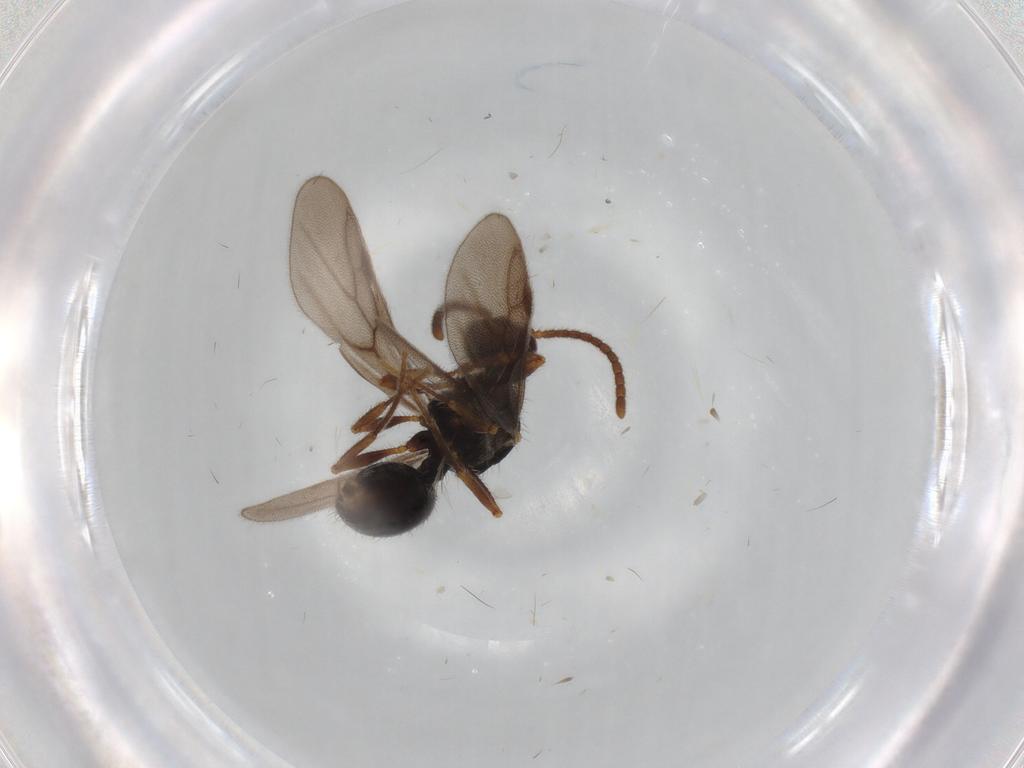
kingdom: Animalia
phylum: Arthropoda
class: Insecta
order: Hymenoptera
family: Formicidae
